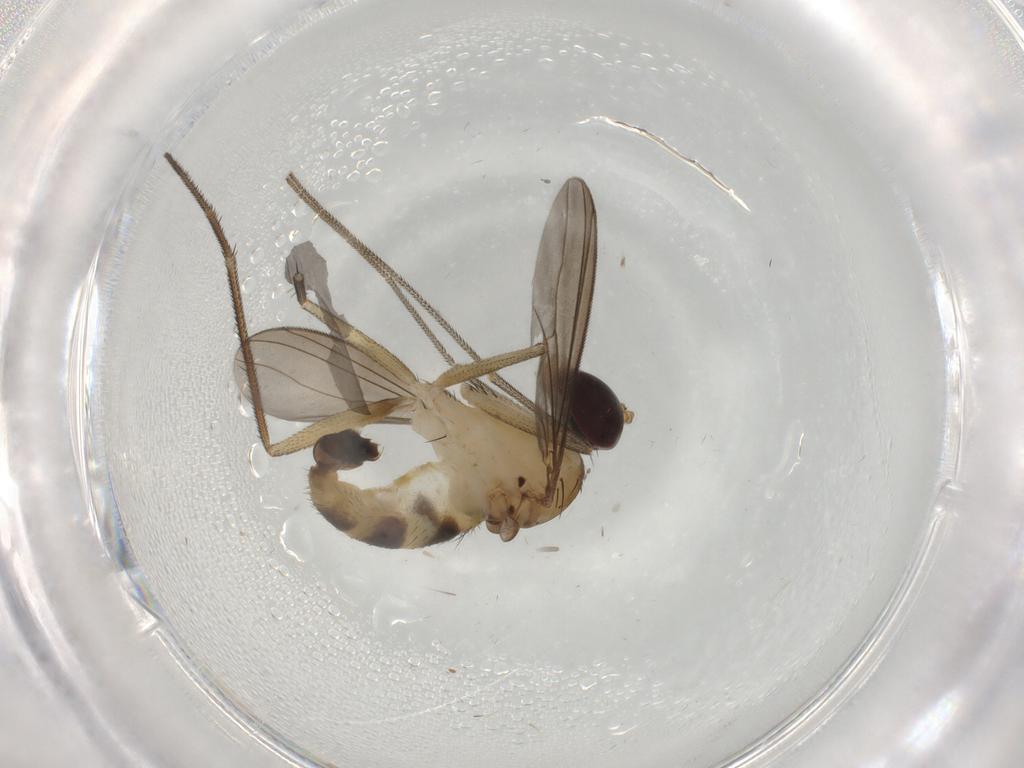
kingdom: Animalia
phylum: Arthropoda
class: Insecta
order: Diptera
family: Dolichopodidae
